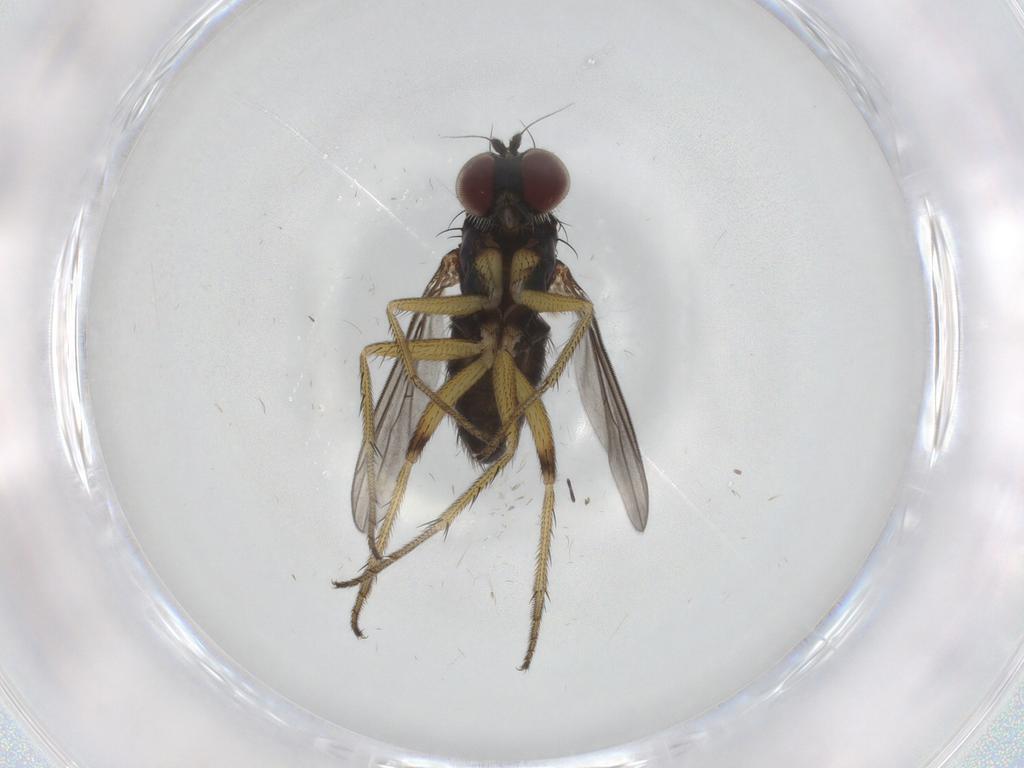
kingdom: Animalia
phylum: Arthropoda
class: Insecta
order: Diptera
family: Dolichopodidae
